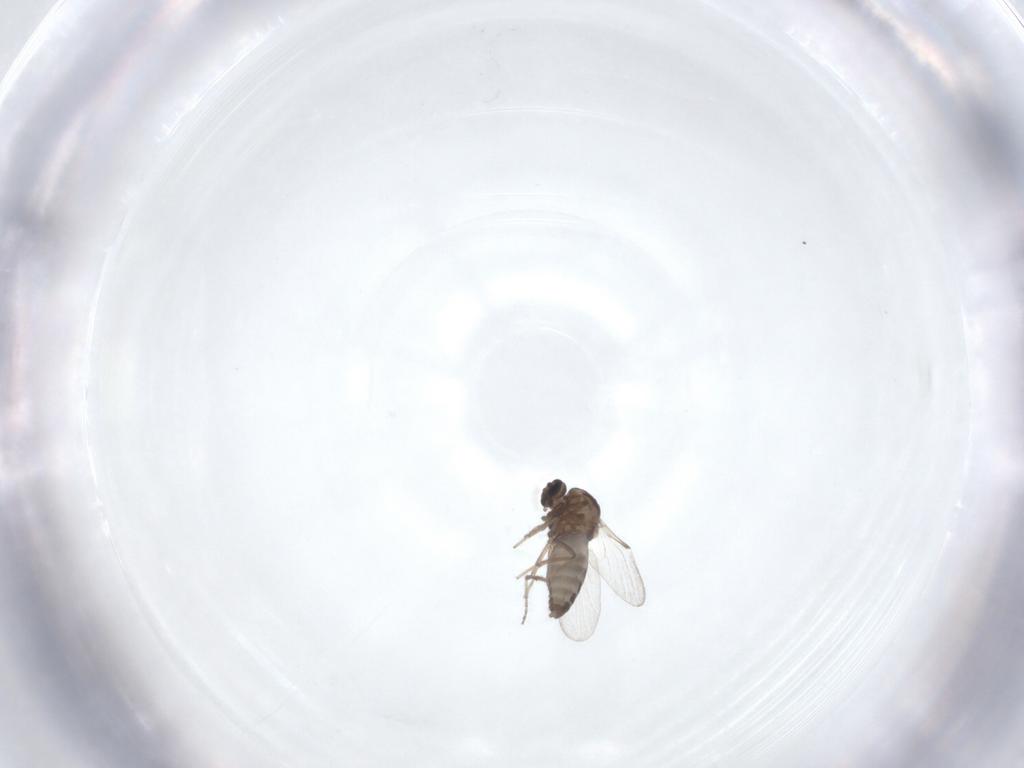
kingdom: Animalia
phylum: Arthropoda
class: Insecta
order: Diptera
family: Ceratopogonidae
